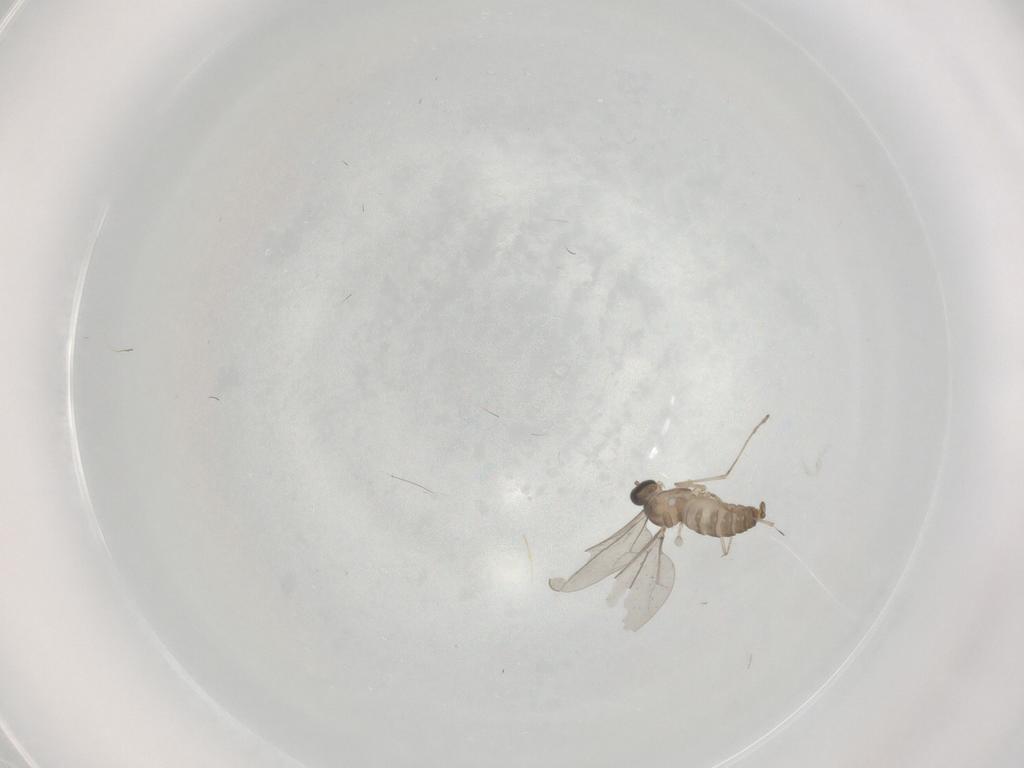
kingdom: Animalia
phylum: Arthropoda
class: Insecta
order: Diptera
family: Cecidomyiidae
